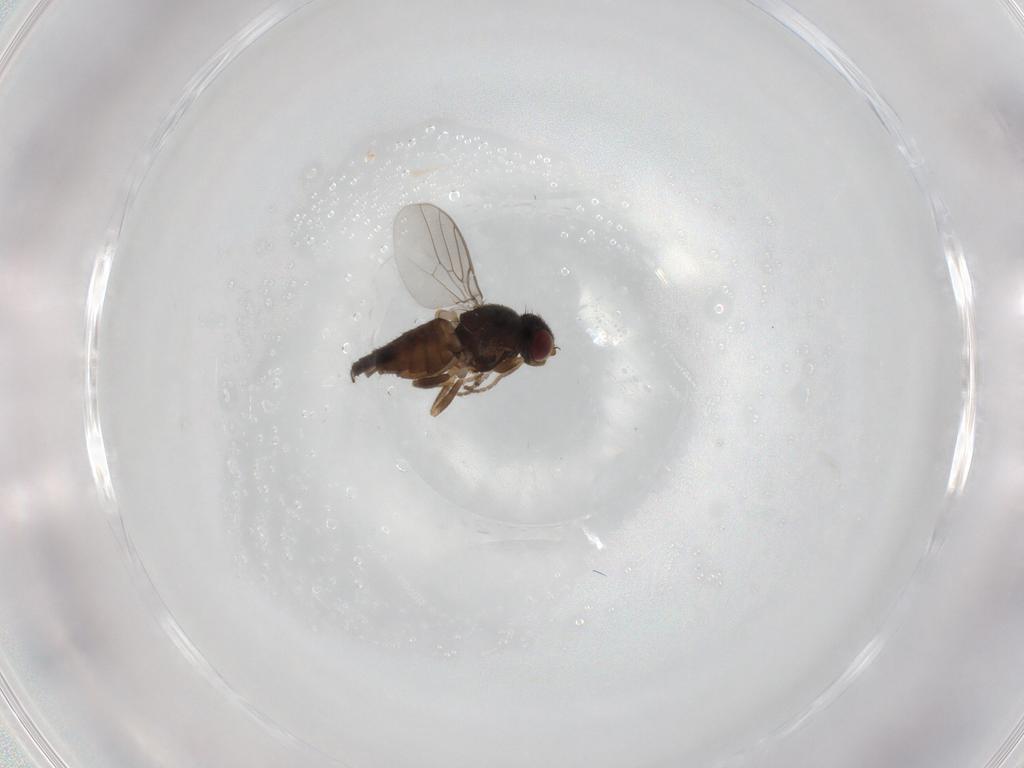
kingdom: Animalia
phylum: Arthropoda
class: Insecta
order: Diptera
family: Chloropidae
